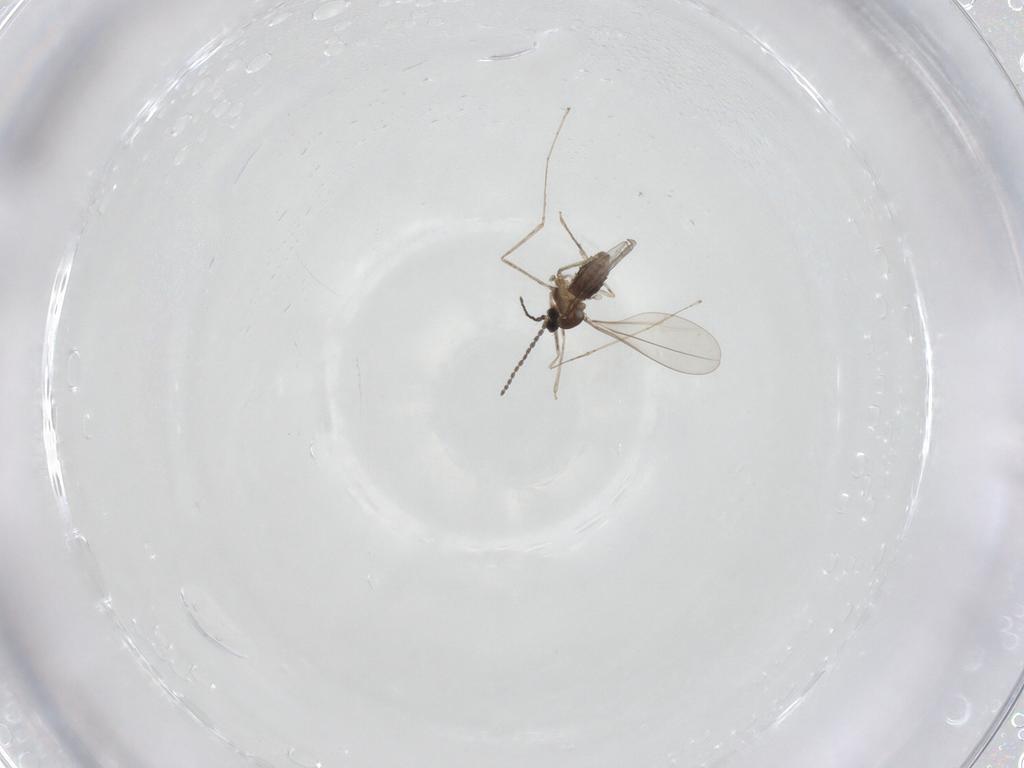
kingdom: Animalia
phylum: Arthropoda
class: Insecta
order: Diptera
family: Cecidomyiidae
